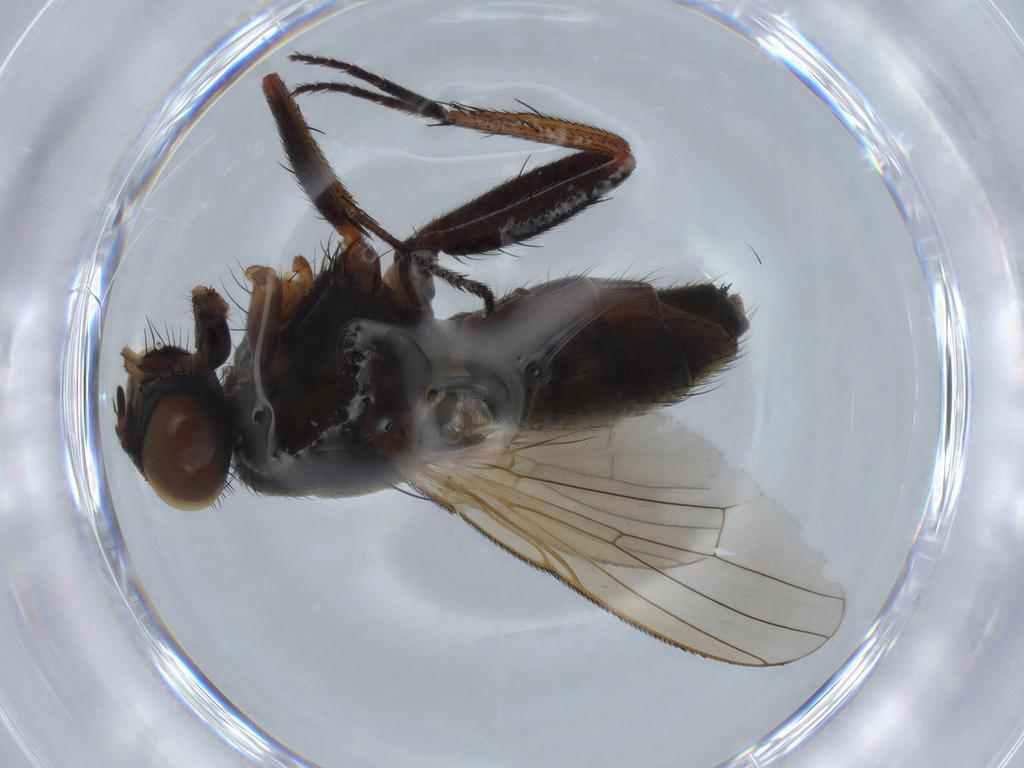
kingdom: Animalia
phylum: Arthropoda
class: Insecta
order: Diptera
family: Muscidae
